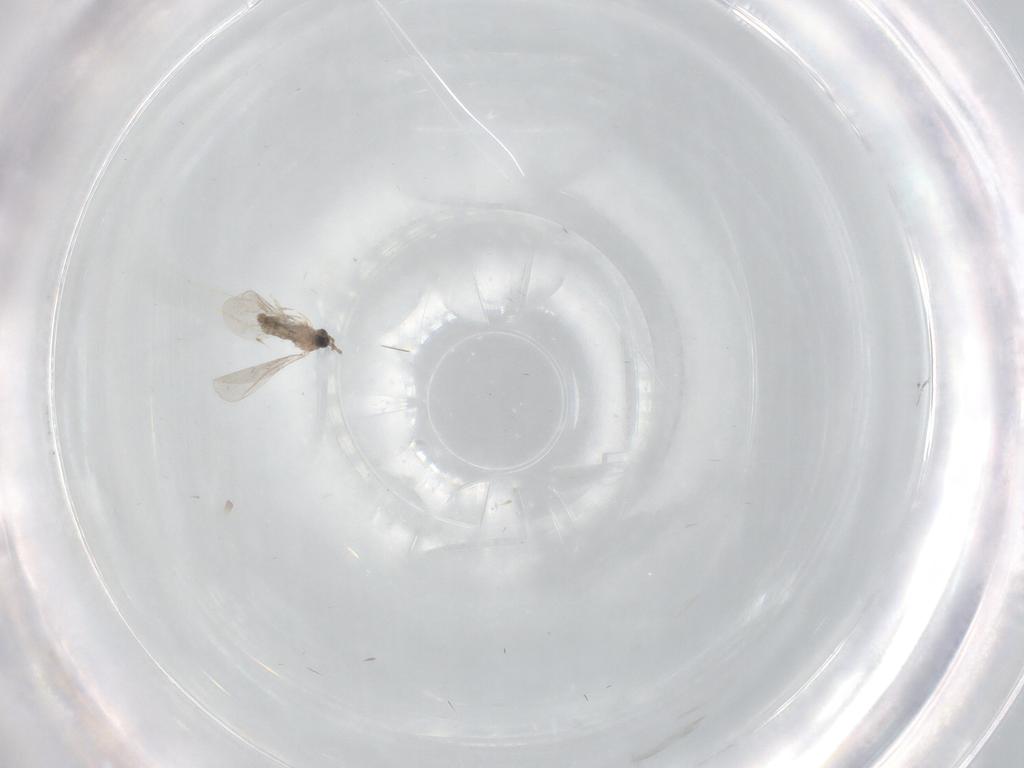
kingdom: Animalia
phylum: Arthropoda
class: Insecta
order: Diptera
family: Cecidomyiidae
